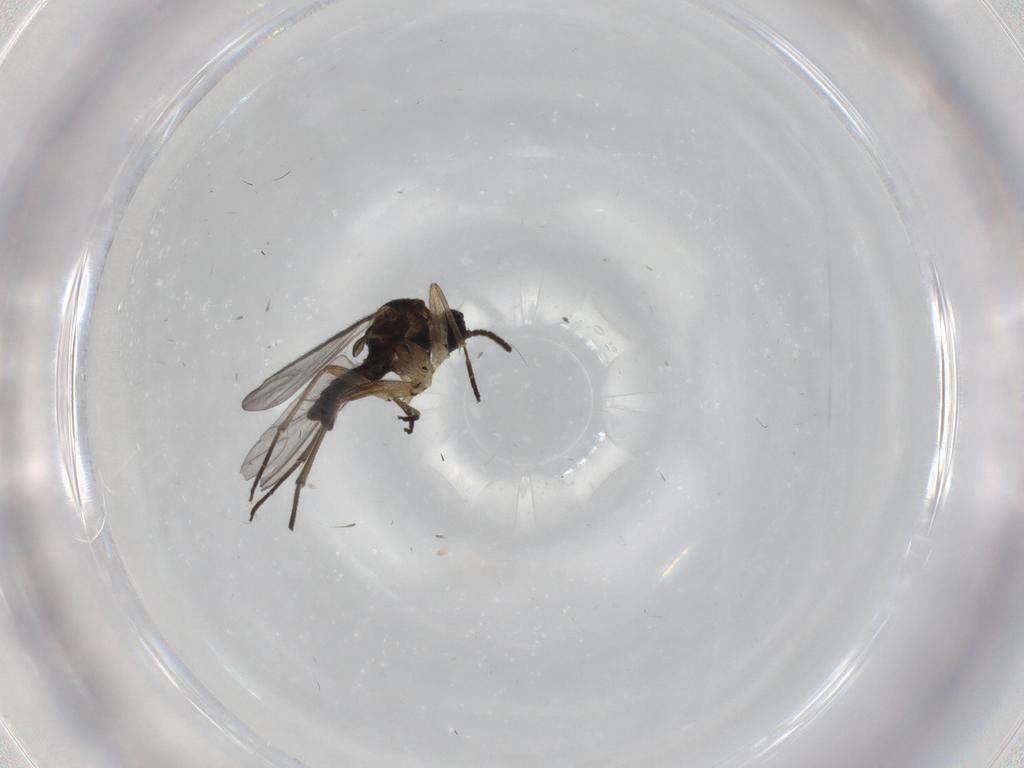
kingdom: Animalia
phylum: Arthropoda
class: Insecta
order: Diptera
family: Sciaridae
